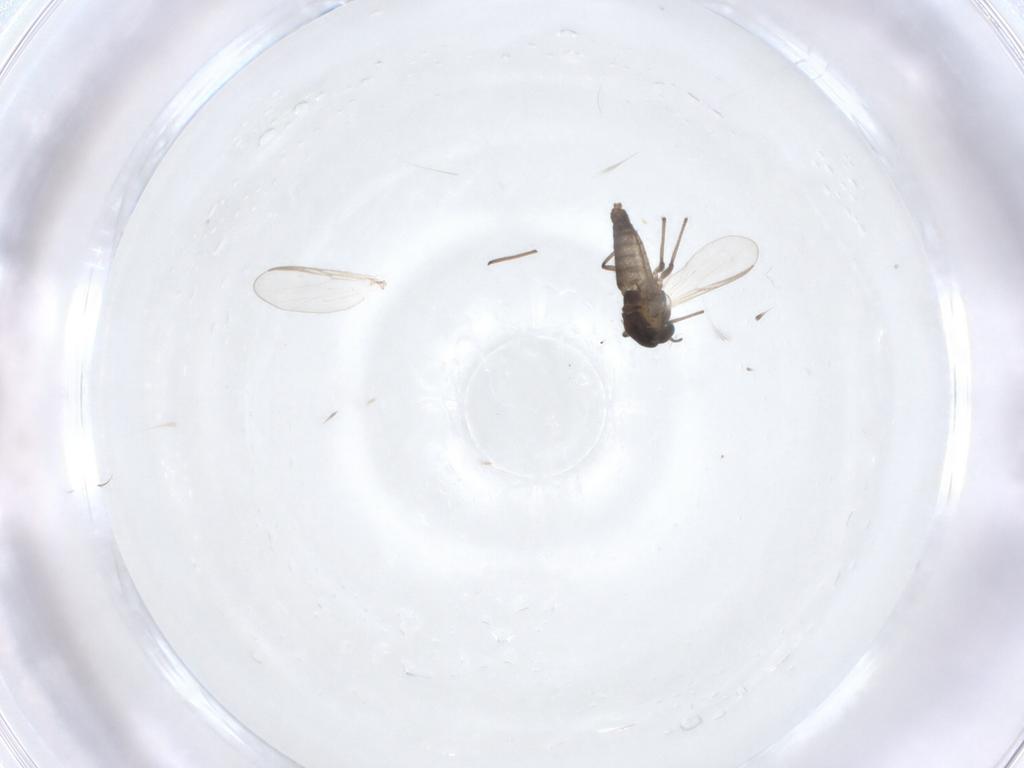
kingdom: Animalia
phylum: Arthropoda
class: Insecta
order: Diptera
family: Chironomidae
